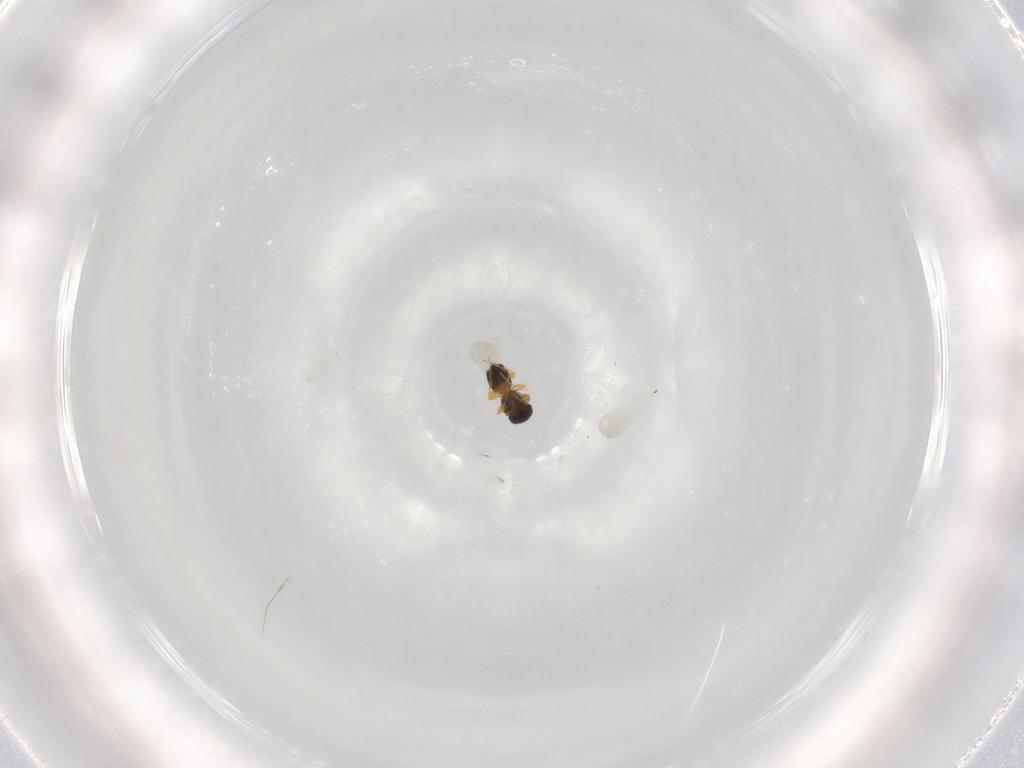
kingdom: Animalia
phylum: Arthropoda
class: Insecta
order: Hymenoptera
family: Platygastridae
